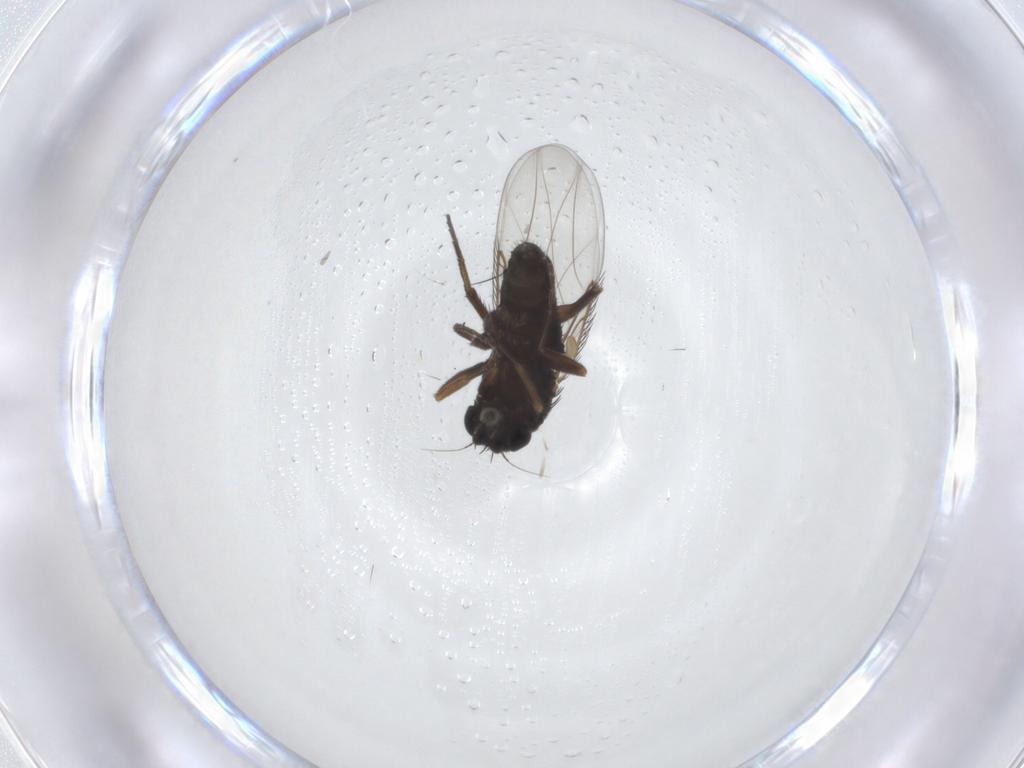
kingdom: Animalia
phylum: Arthropoda
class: Insecta
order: Diptera
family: Phoridae
